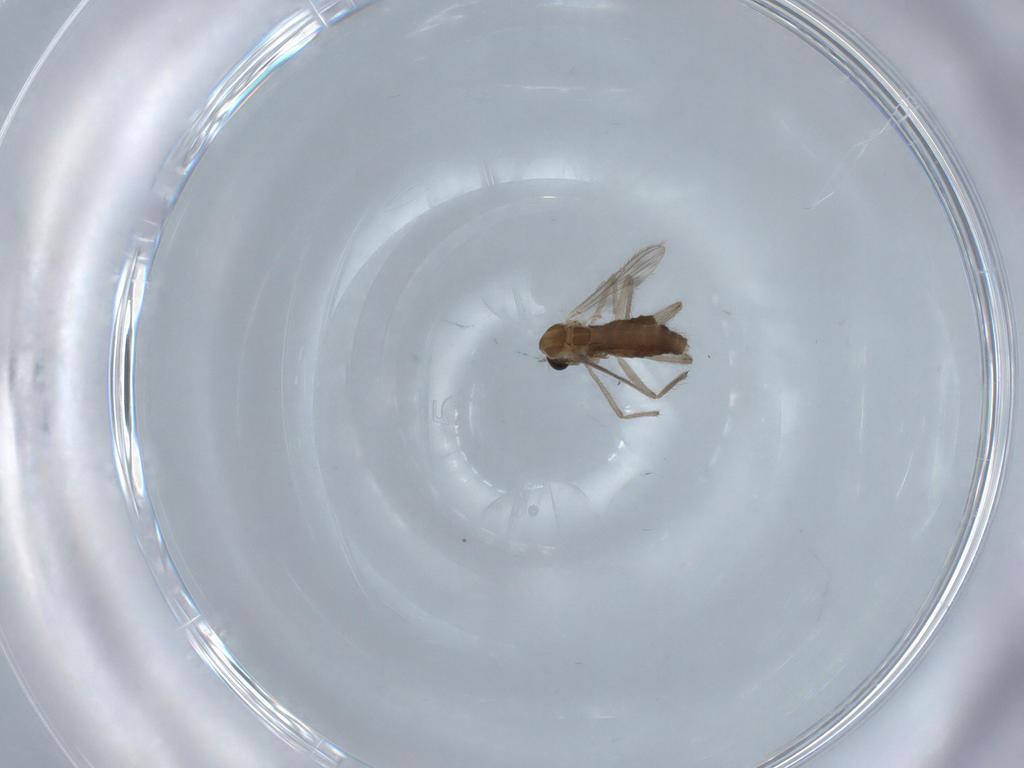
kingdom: Animalia
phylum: Arthropoda
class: Insecta
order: Diptera
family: Chironomidae
